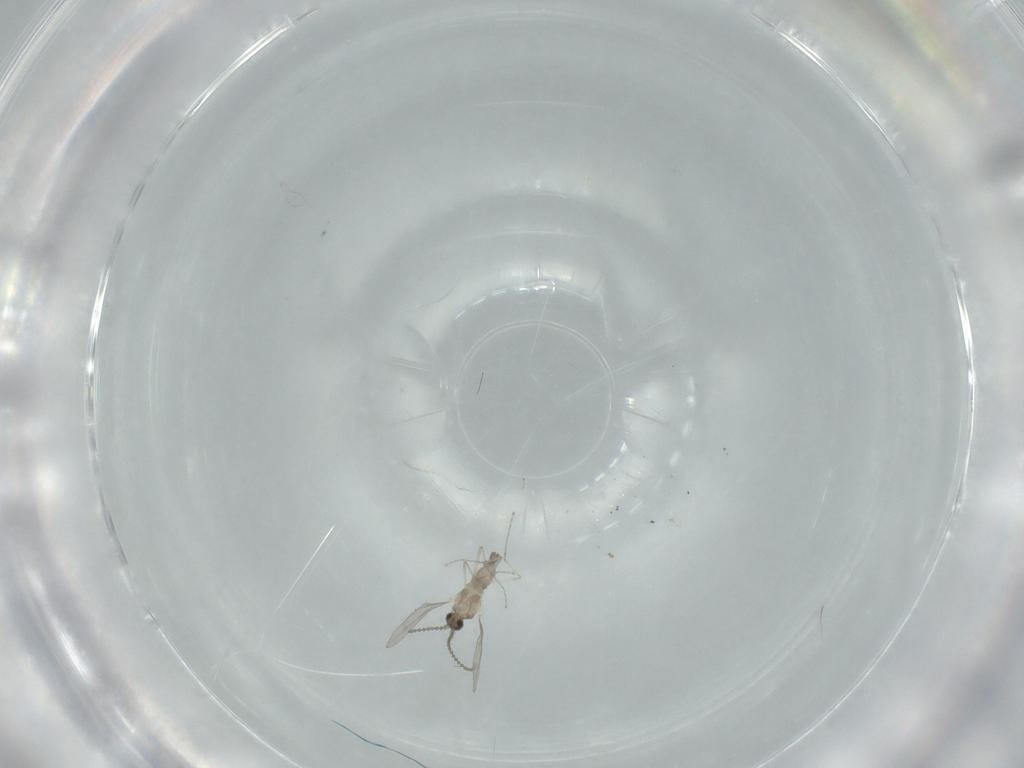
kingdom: Animalia
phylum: Arthropoda
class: Insecta
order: Diptera
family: Cecidomyiidae
